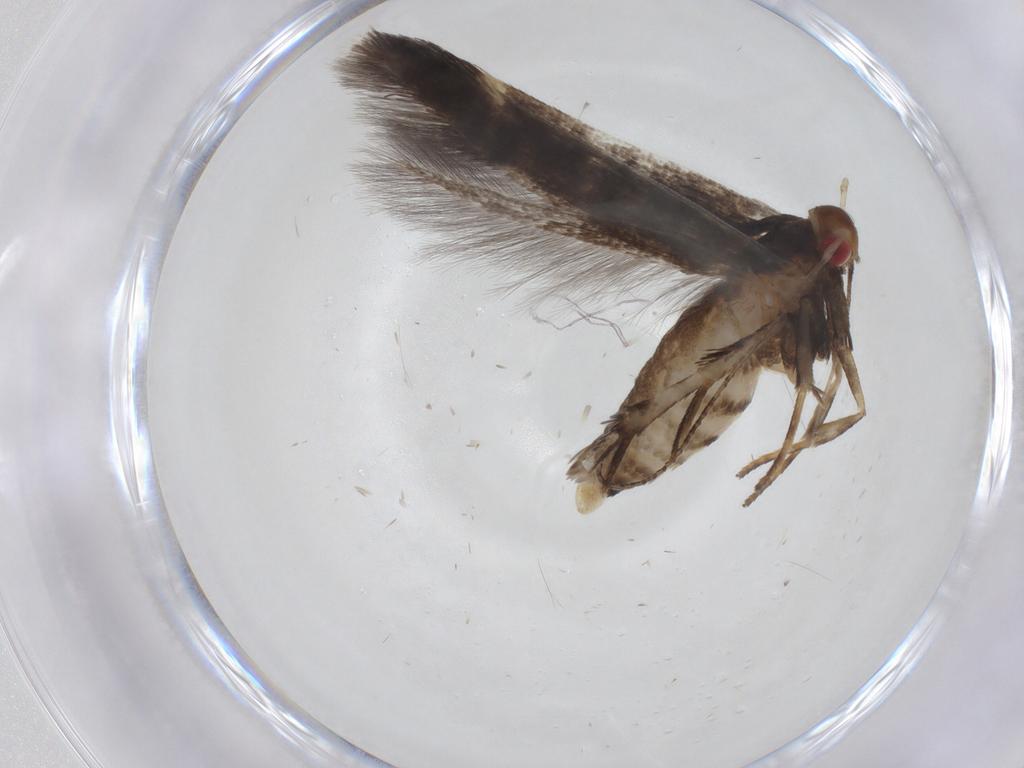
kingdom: Animalia
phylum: Arthropoda
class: Insecta
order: Lepidoptera
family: Gelechiidae
